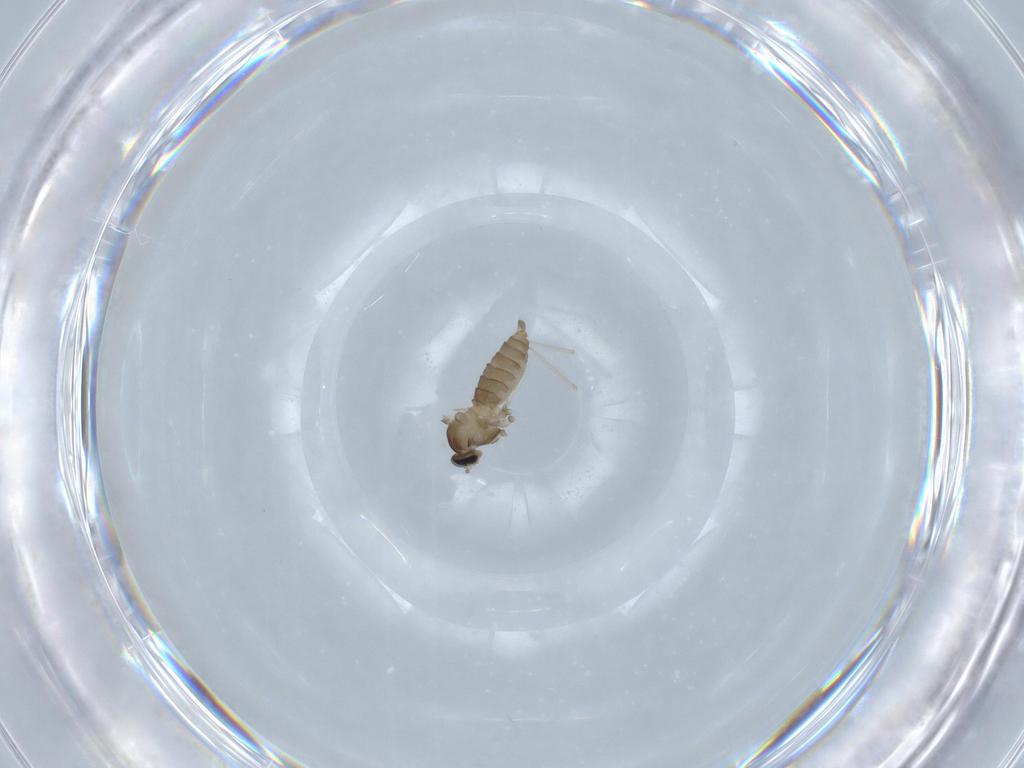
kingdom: Animalia
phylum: Arthropoda
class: Insecta
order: Diptera
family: Cecidomyiidae
